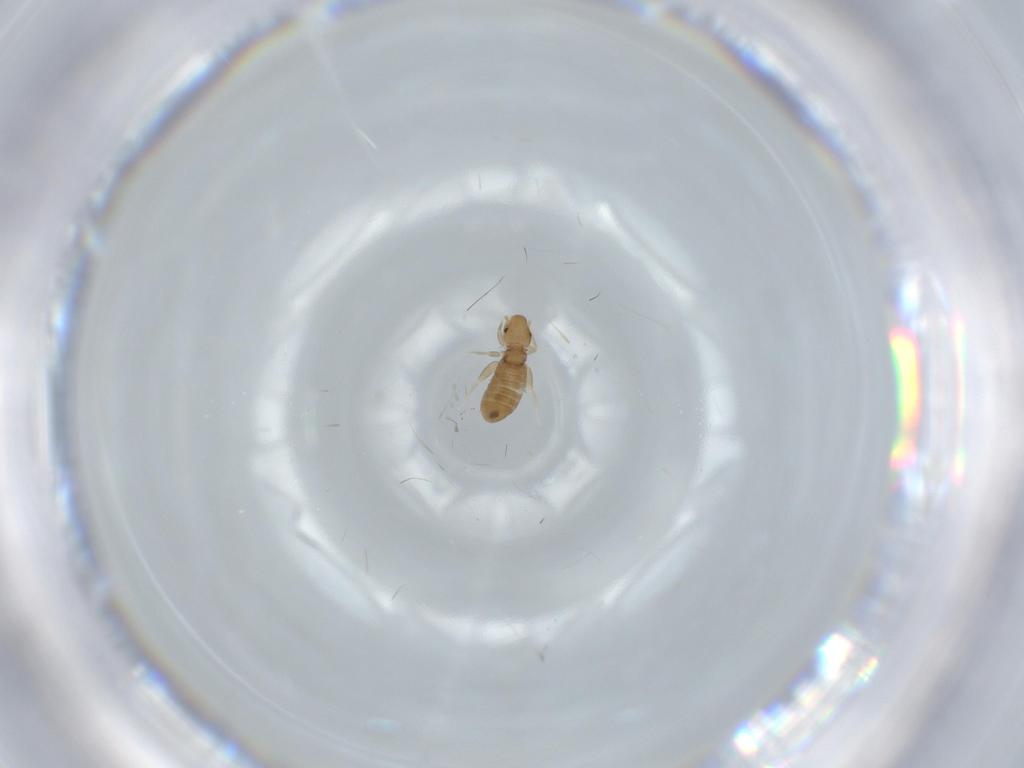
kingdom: Animalia
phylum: Arthropoda
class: Insecta
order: Psocodea
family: Liposcelididae
